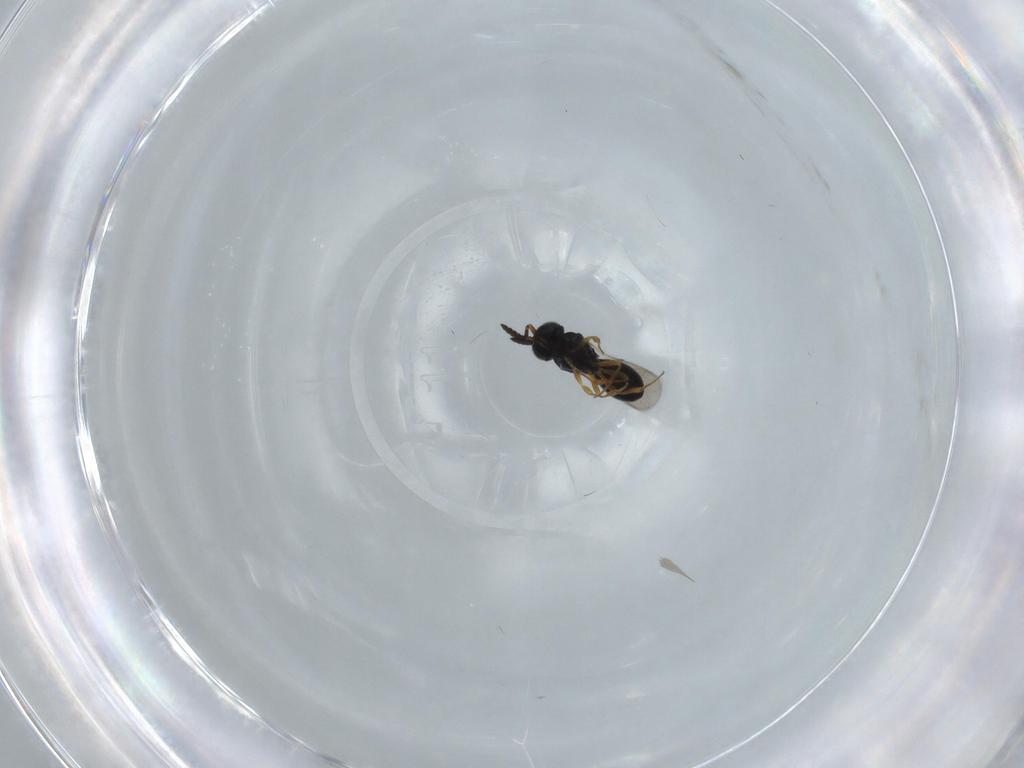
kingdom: Animalia
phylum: Arthropoda
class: Insecta
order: Hymenoptera
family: Scelionidae
